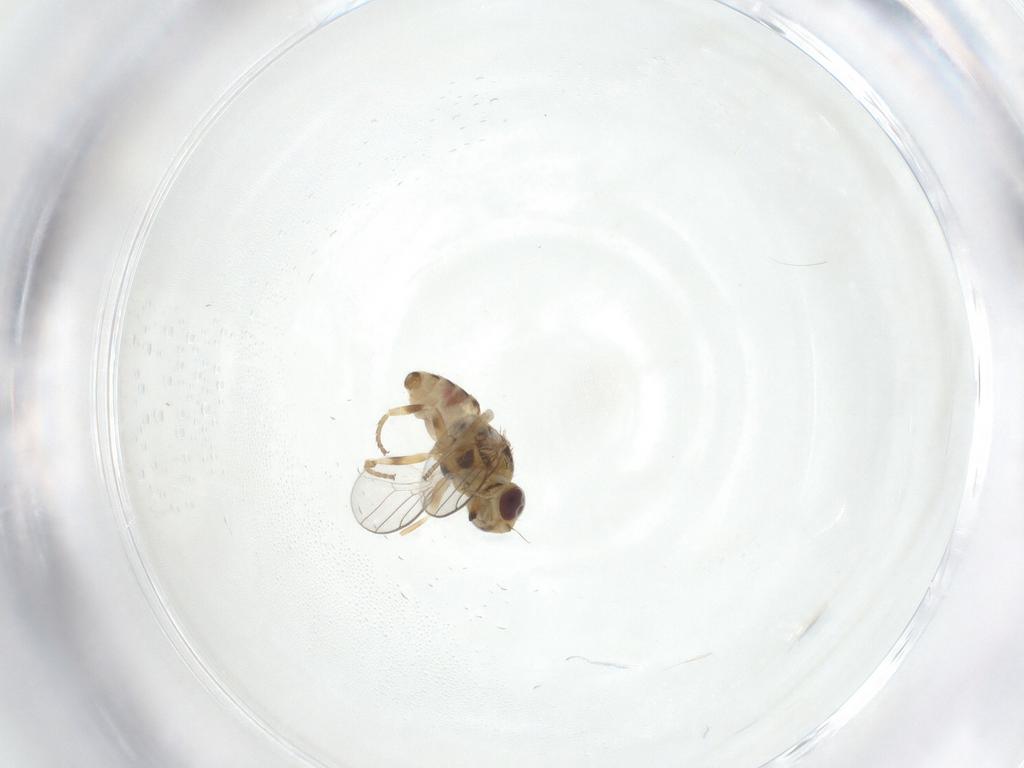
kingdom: Animalia
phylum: Arthropoda
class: Insecta
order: Diptera
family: Chloropidae
